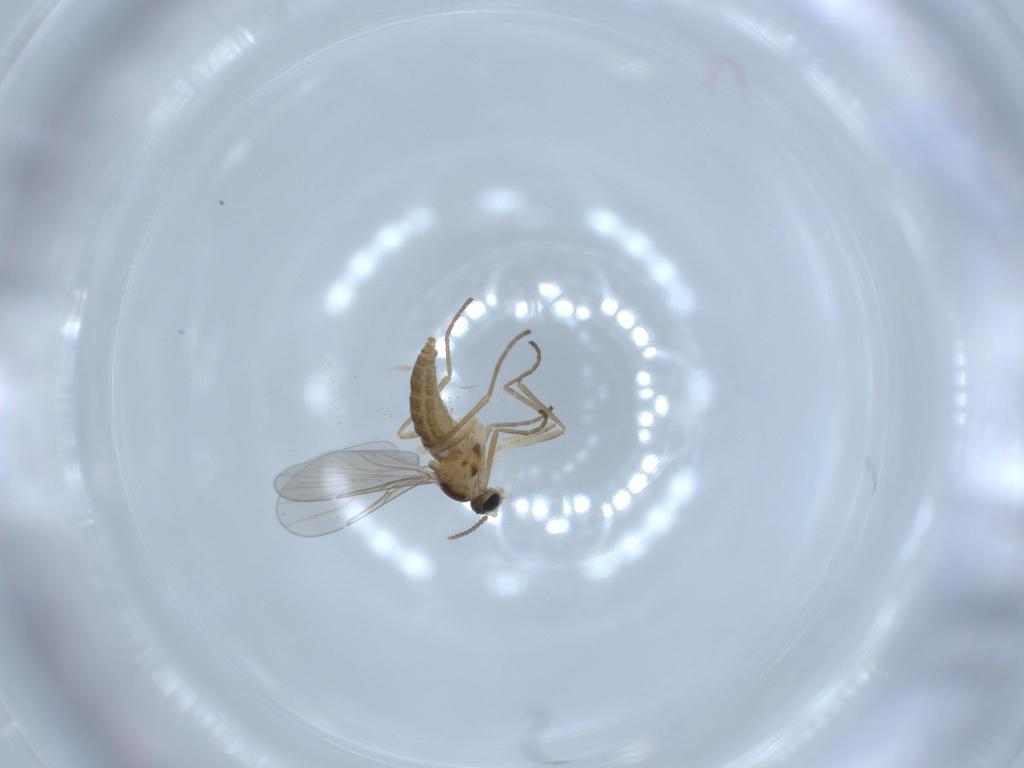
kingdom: Animalia
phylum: Arthropoda
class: Insecta
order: Diptera
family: Cecidomyiidae
